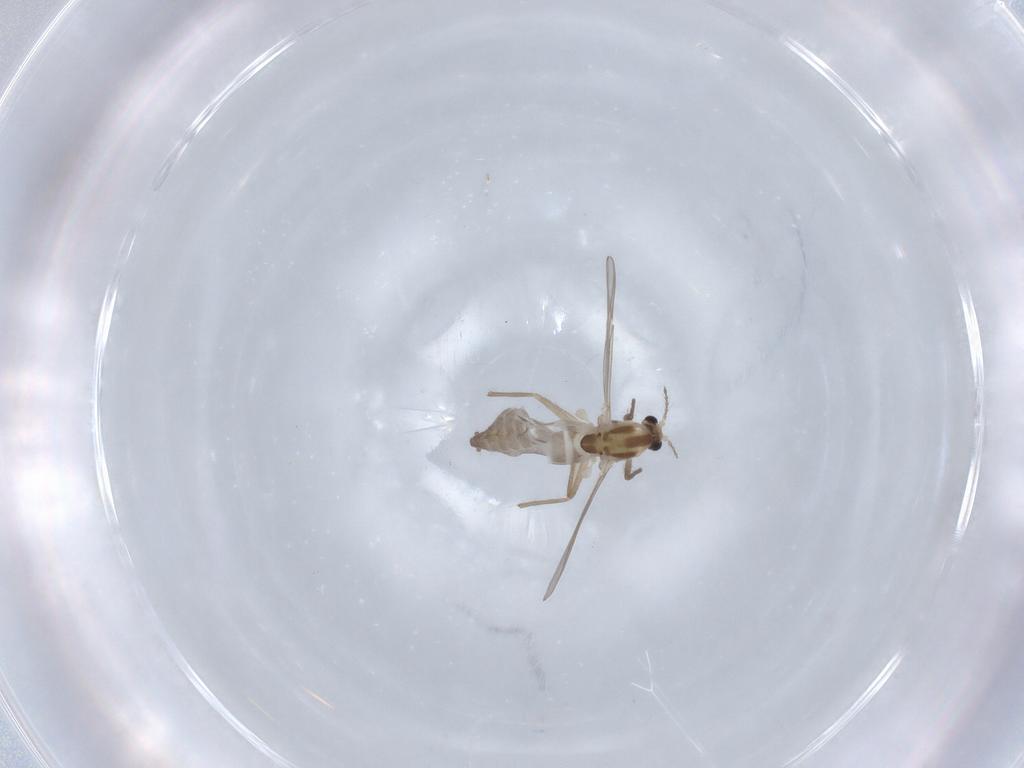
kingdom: Animalia
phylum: Arthropoda
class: Insecta
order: Diptera
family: Chironomidae
